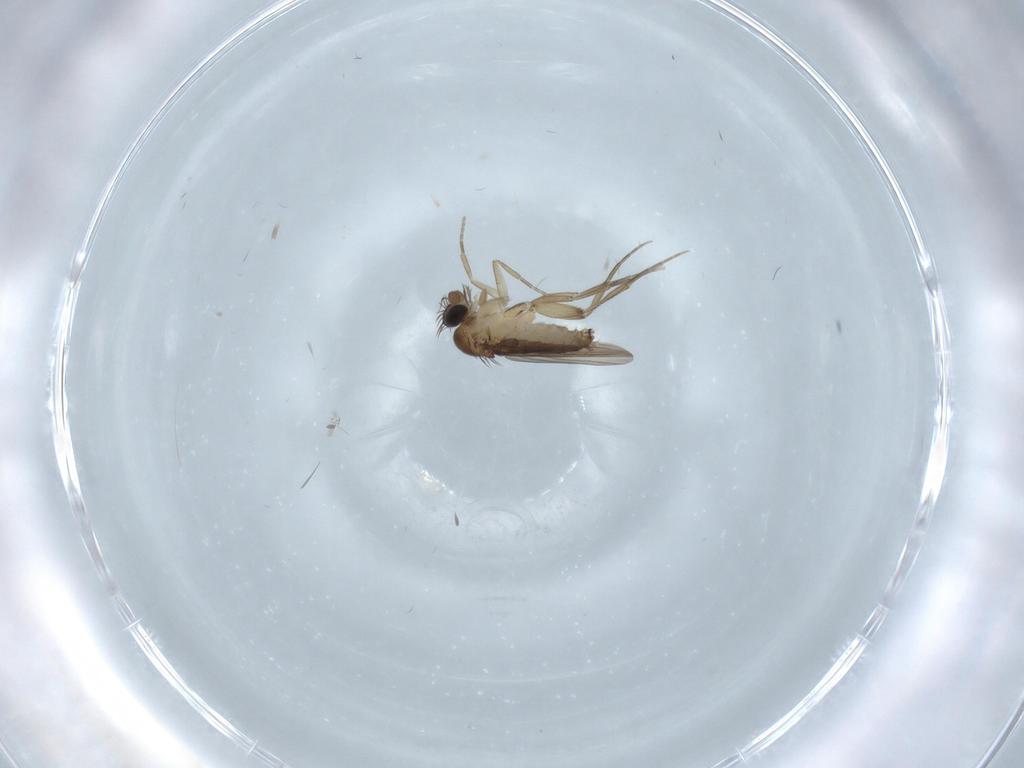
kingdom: Animalia
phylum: Arthropoda
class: Insecta
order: Diptera
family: Phoridae
